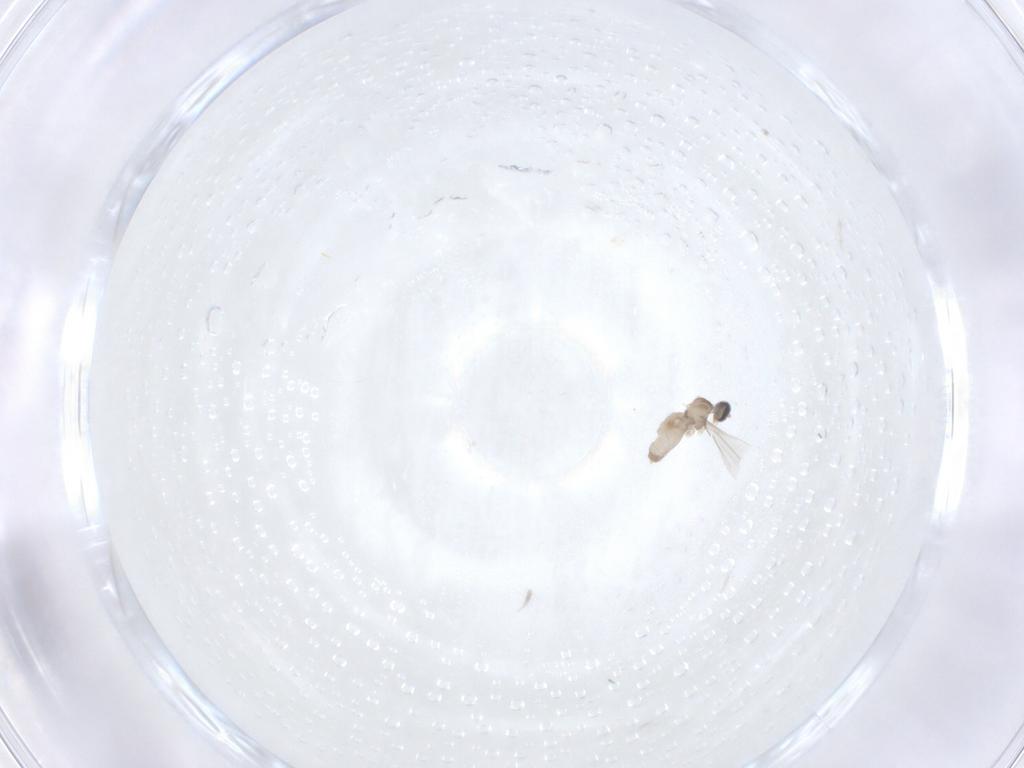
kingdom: Animalia
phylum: Arthropoda
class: Insecta
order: Diptera
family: Cecidomyiidae
